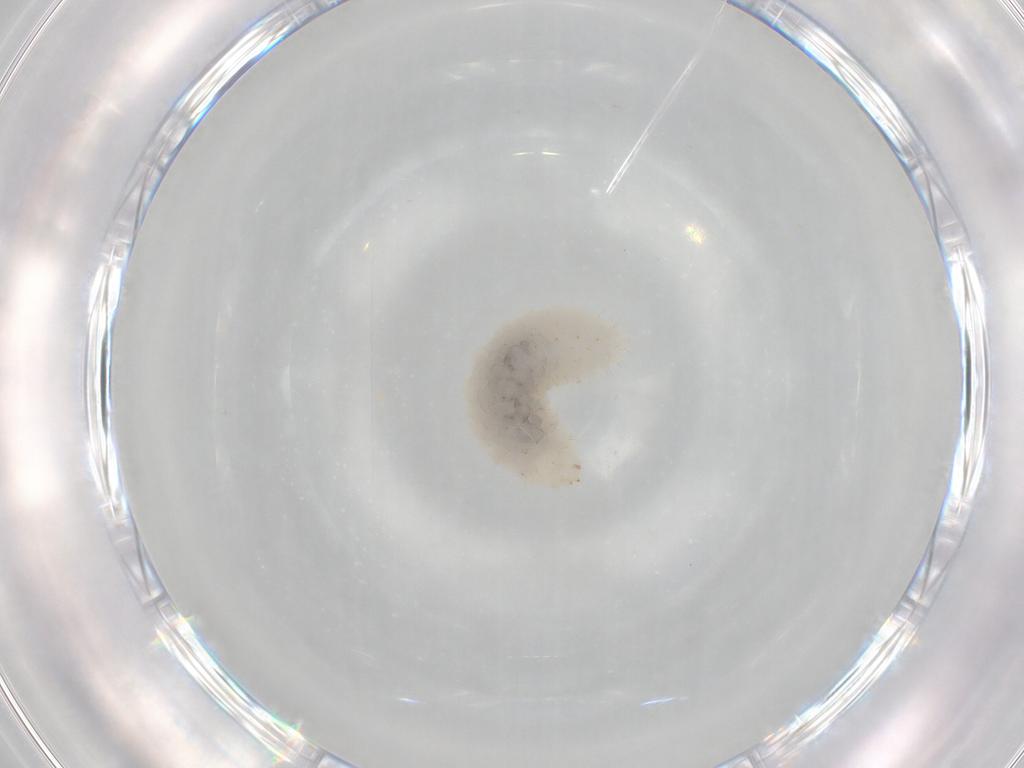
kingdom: Animalia
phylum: Arthropoda
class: Insecta
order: Hymenoptera
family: Torymidae
